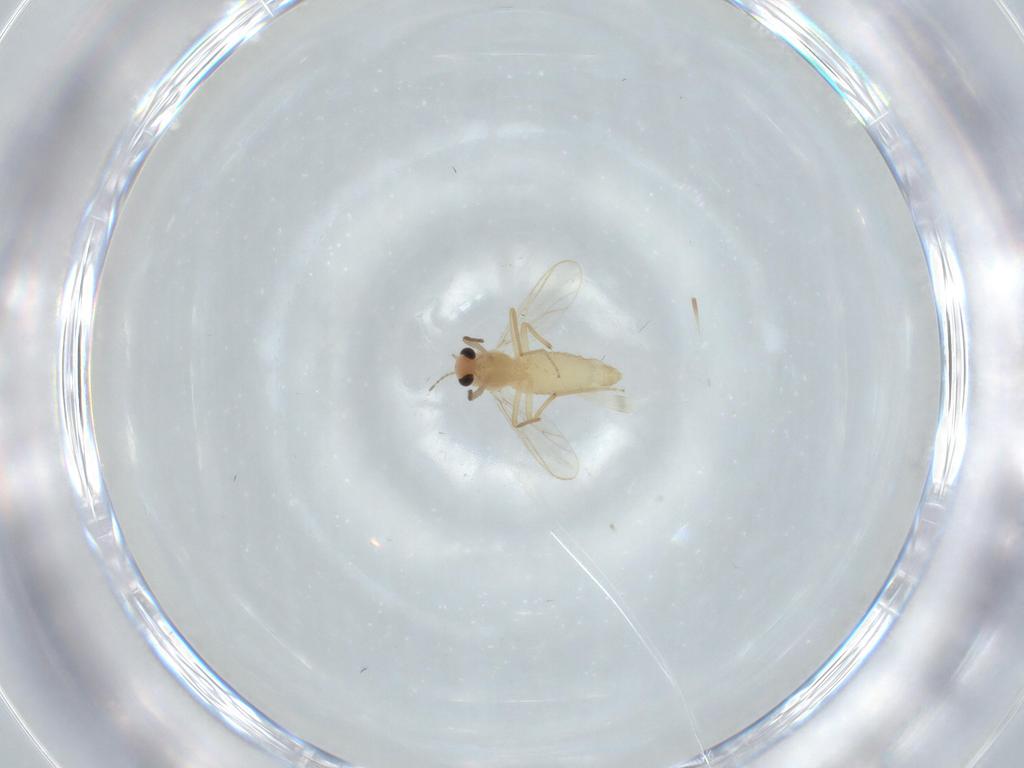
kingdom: Animalia
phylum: Arthropoda
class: Insecta
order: Diptera
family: Chironomidae
